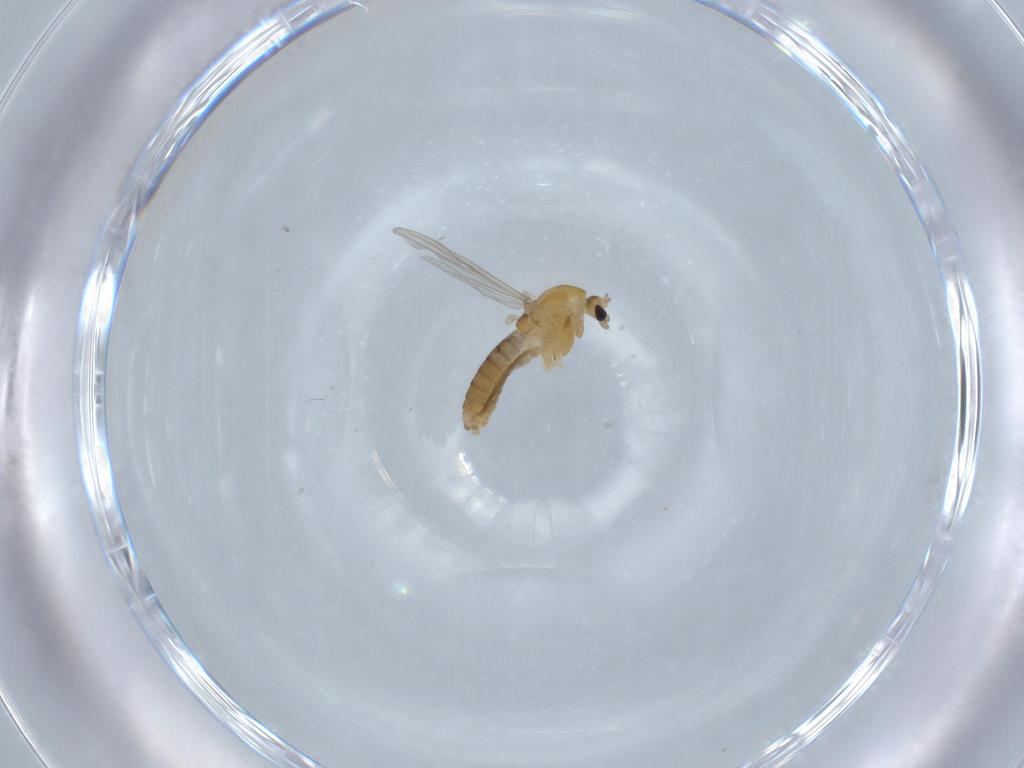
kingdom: Animalia
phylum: Arthropoda
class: Insecta
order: Diptera
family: Chironomidae
